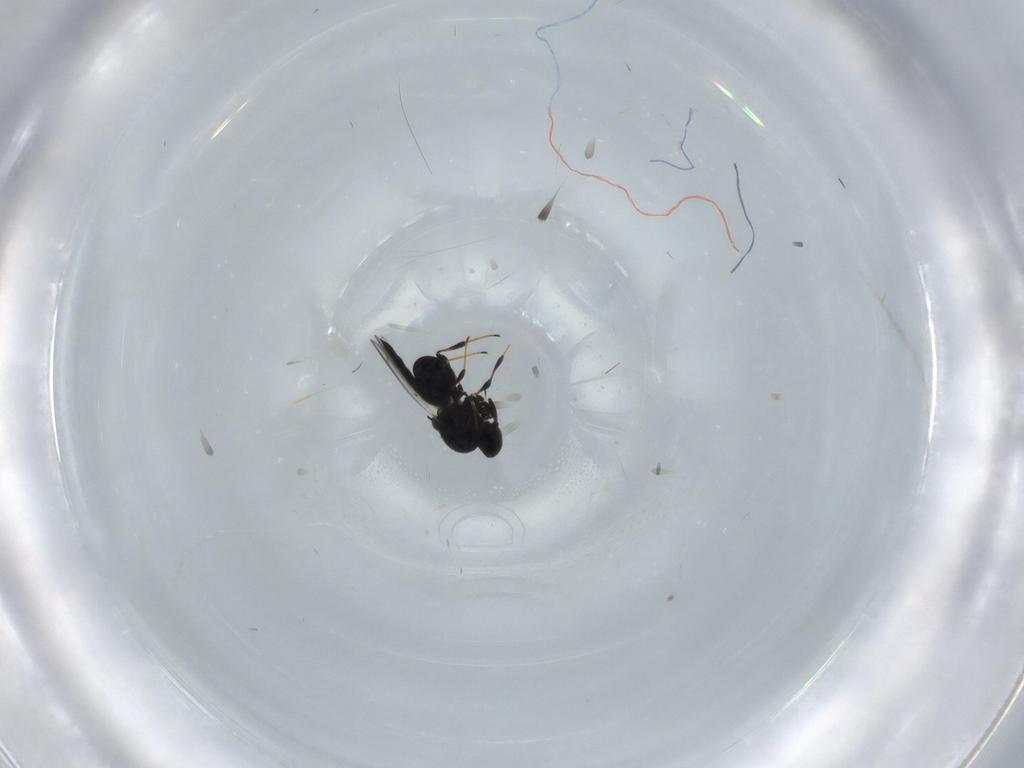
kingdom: Animalia
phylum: Arthropoda
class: Insecta
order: Hymenoptera
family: Platygastridae
